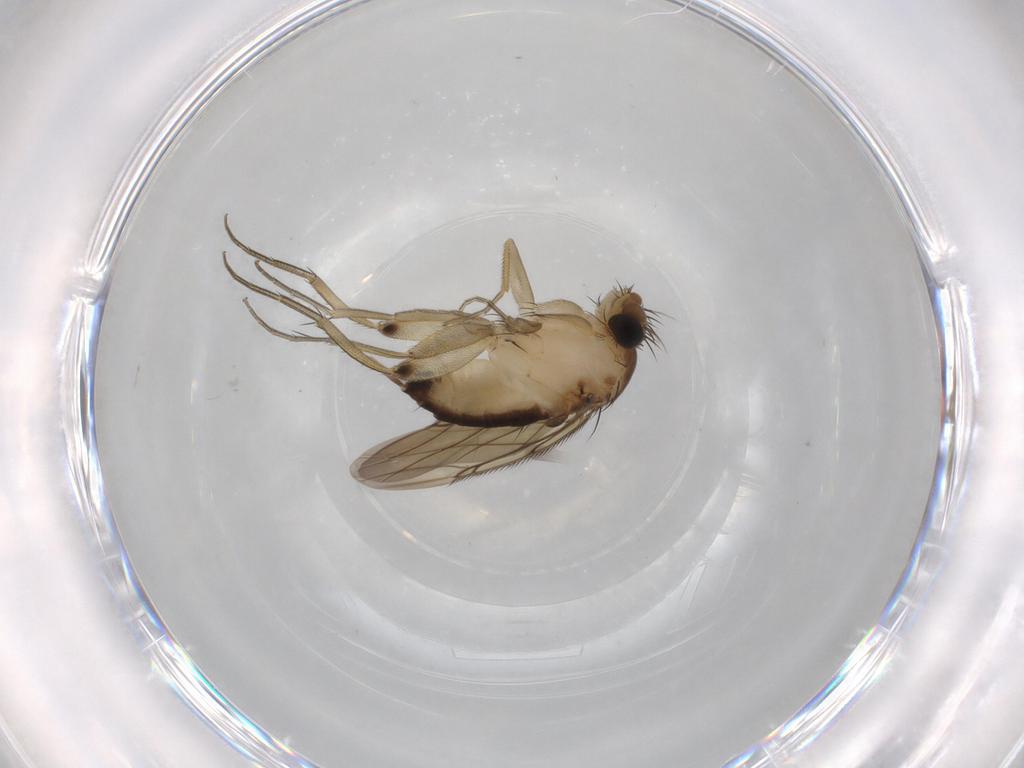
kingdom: Animalia
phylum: Arthropoda
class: Insecta
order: Diptera
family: Phoridae
